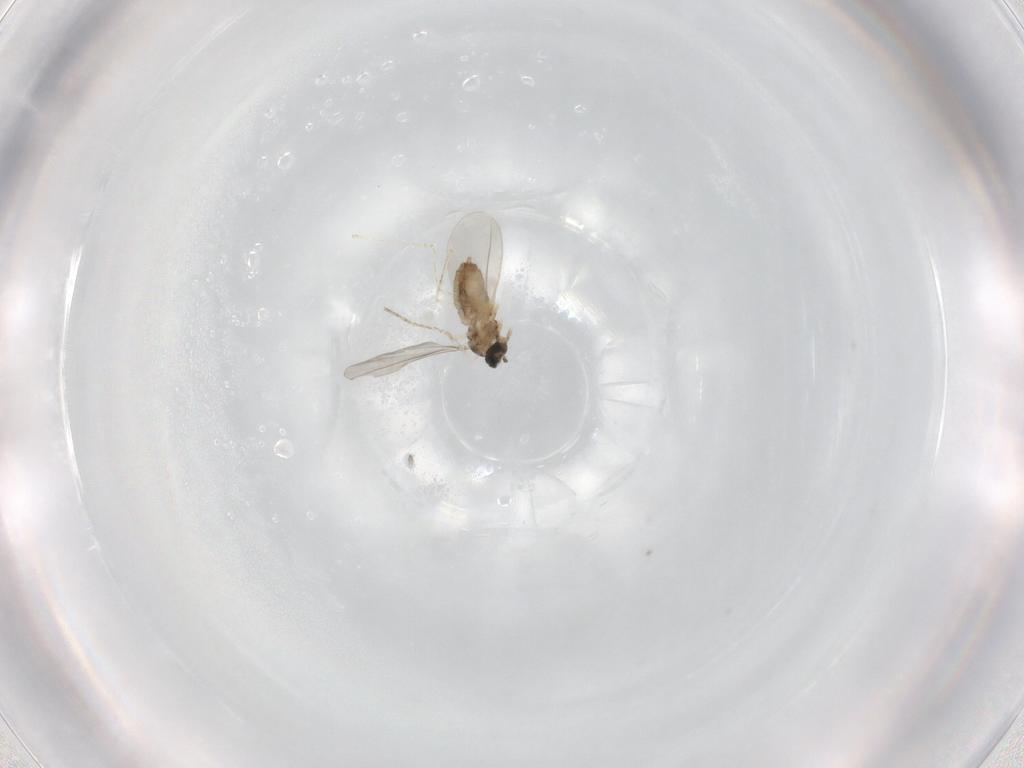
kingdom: Animalia
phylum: Arthropoda
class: Insecta
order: Diptera
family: Cecidomyiidae
